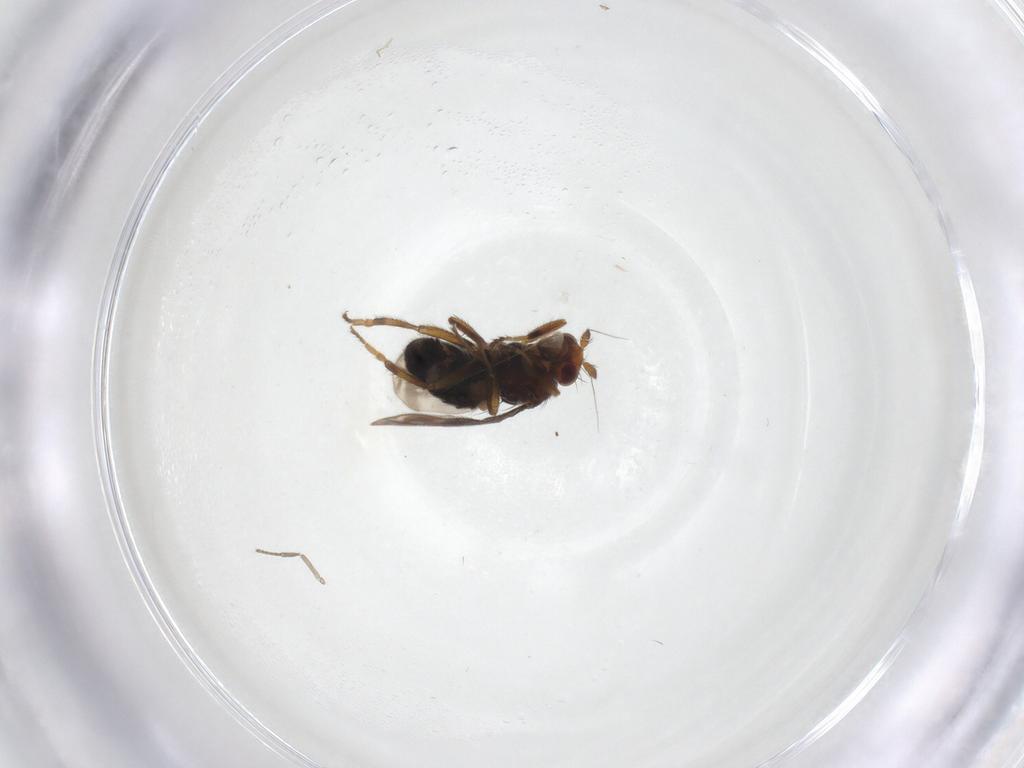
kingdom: Animalia
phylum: Arthropoda
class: Insecta
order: Diptera
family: Sphaeroceridae
